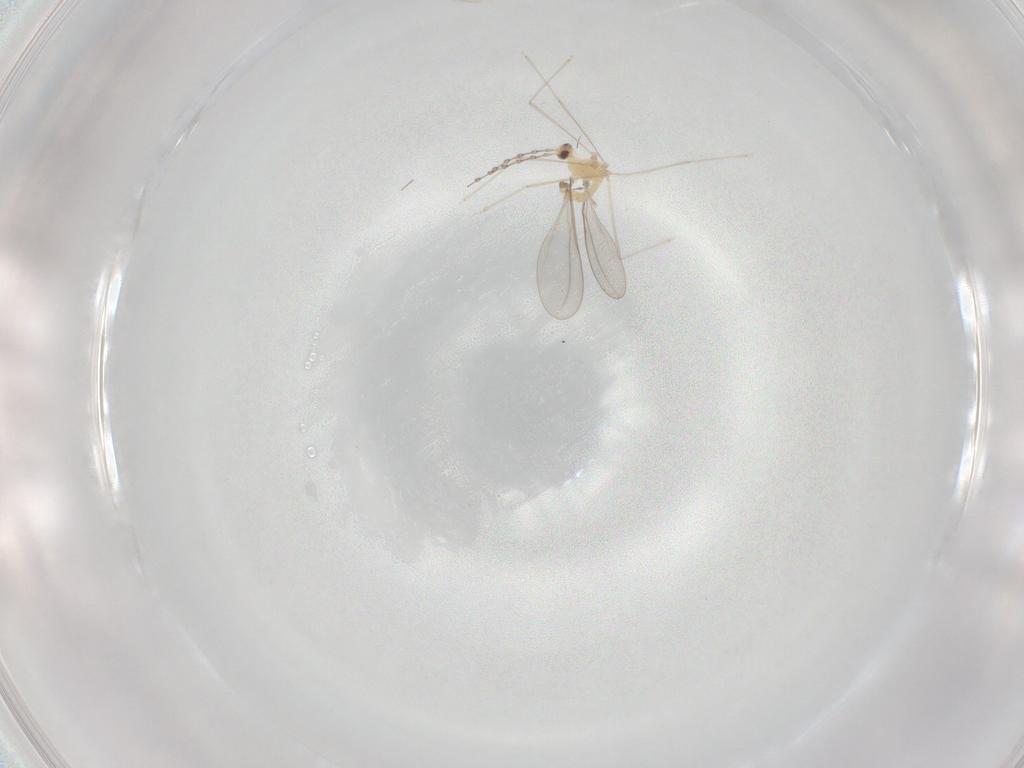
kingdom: Animalia
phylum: Arthropoda
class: Insecta
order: Diptera
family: Cecidomyiidae
